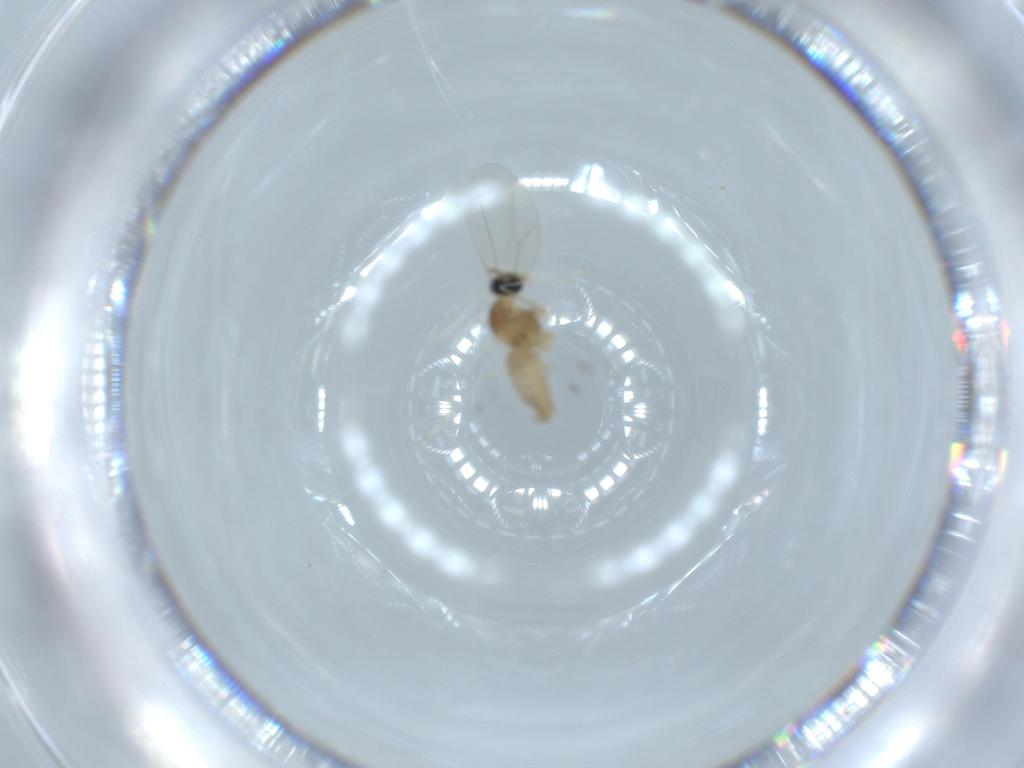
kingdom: Animalia
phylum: Arthropoda
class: Insecta
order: Diptera
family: Cecidomyiidae
